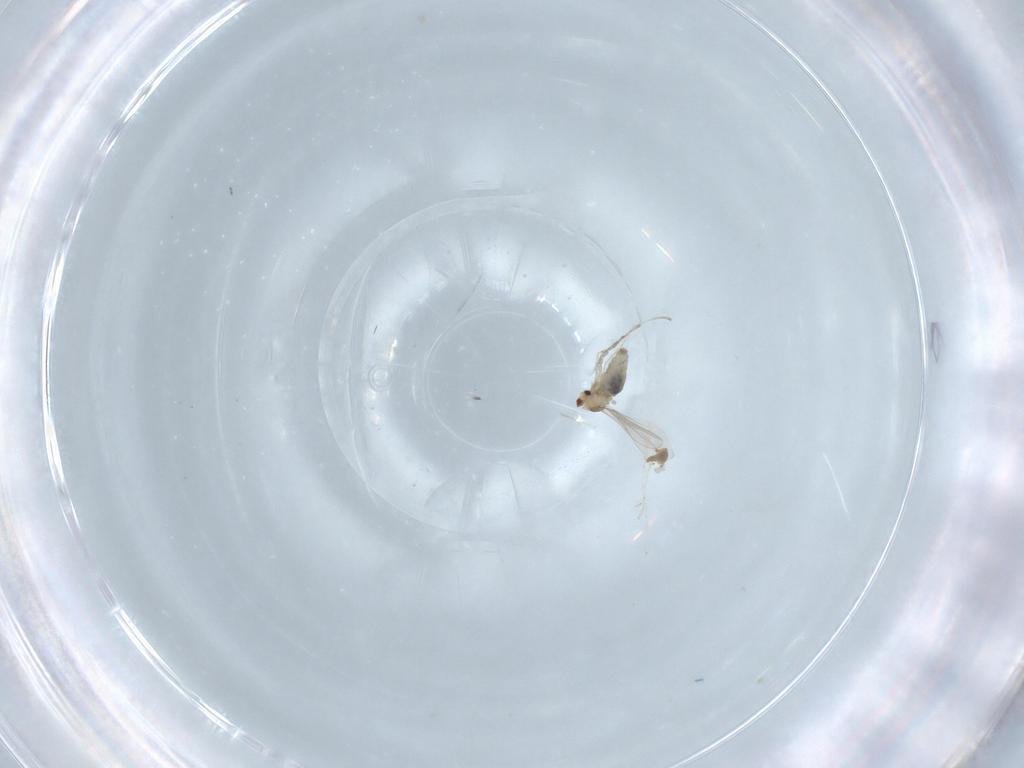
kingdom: Animalia
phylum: Arthropoda
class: Insecta
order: Diptera
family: Cecidomyiidae
